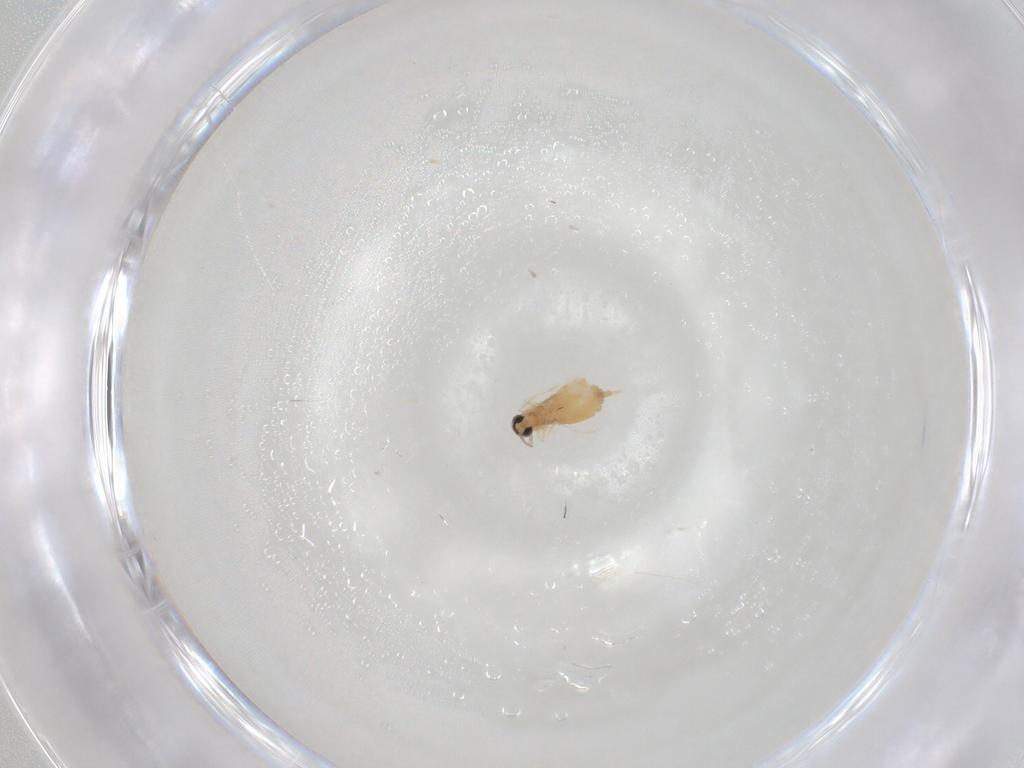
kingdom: Animalia
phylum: Arthropoda
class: Insecta
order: Diptera
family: Cecidomyiidae
